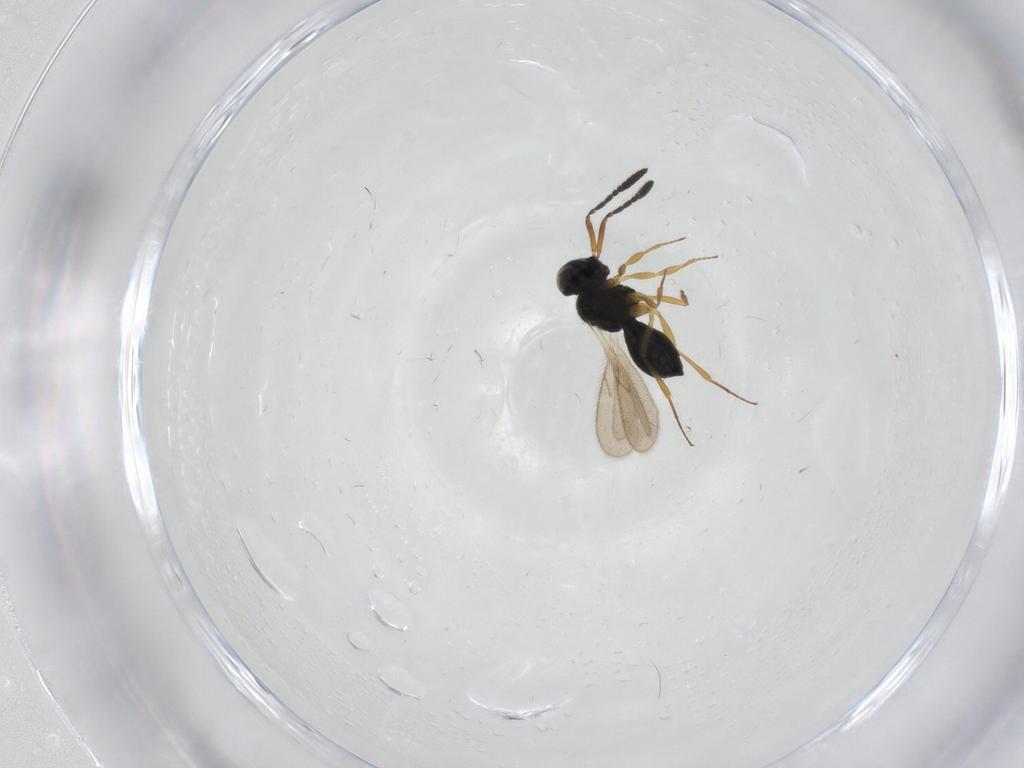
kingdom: Animalia
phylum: Arthropoda
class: Insecta
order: Hymenoptera
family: Scelionidae
